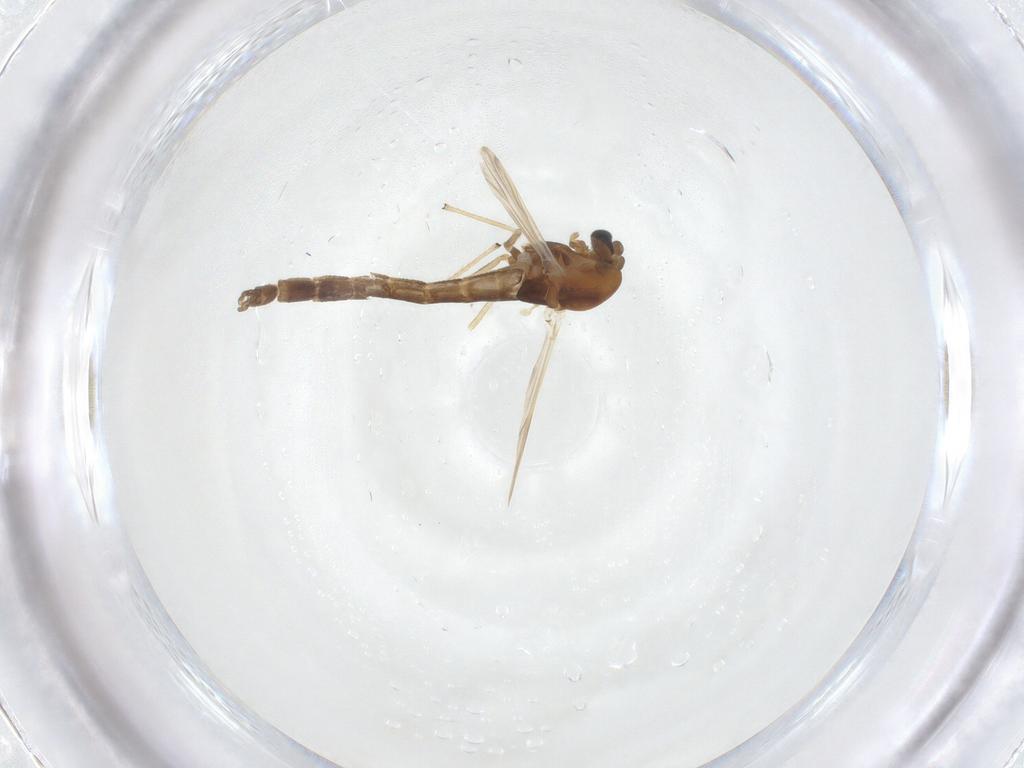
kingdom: Animalia
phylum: Arthropoda
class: Insecta
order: Diptera
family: Chironomidae
